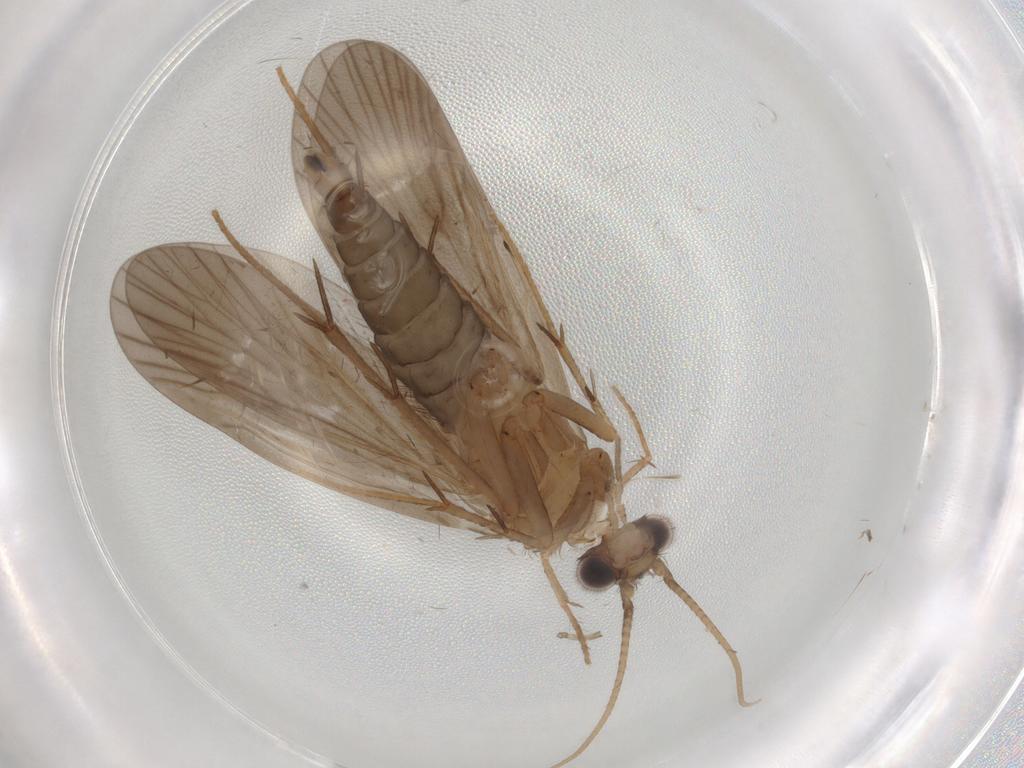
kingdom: Animalia
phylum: Arthropoda
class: Insecta
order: Trichoptera
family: Philopotamidae
